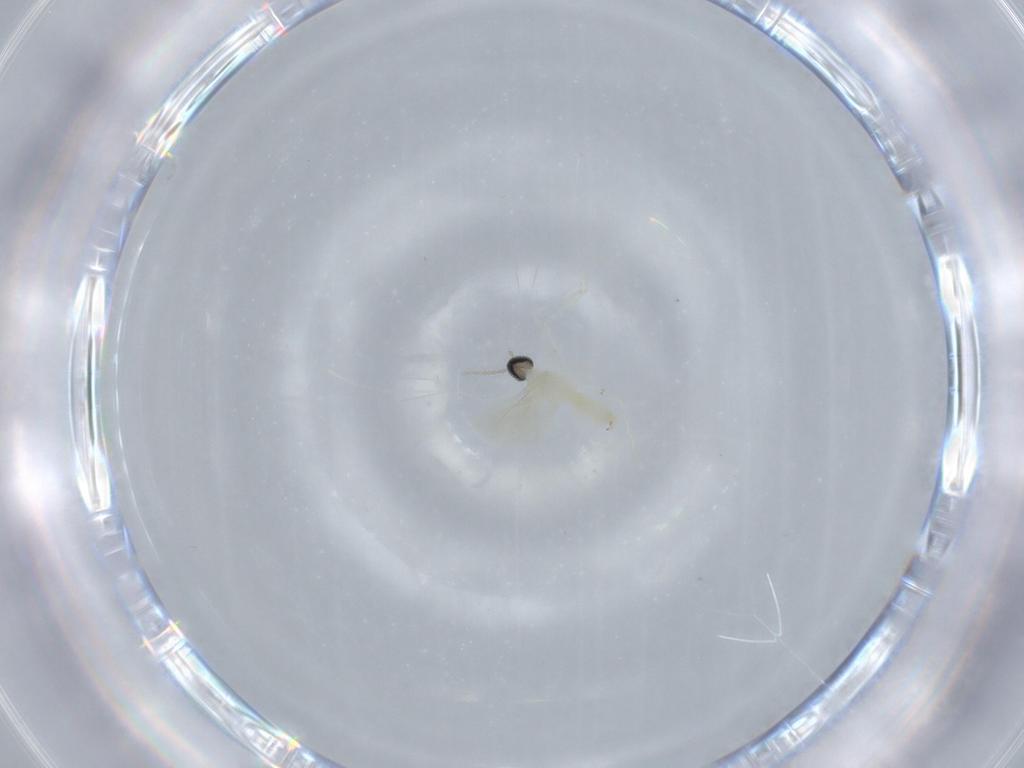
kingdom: Animalia
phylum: Arthropoda
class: Insecta
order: Diptera
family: Cecidomyiidae
